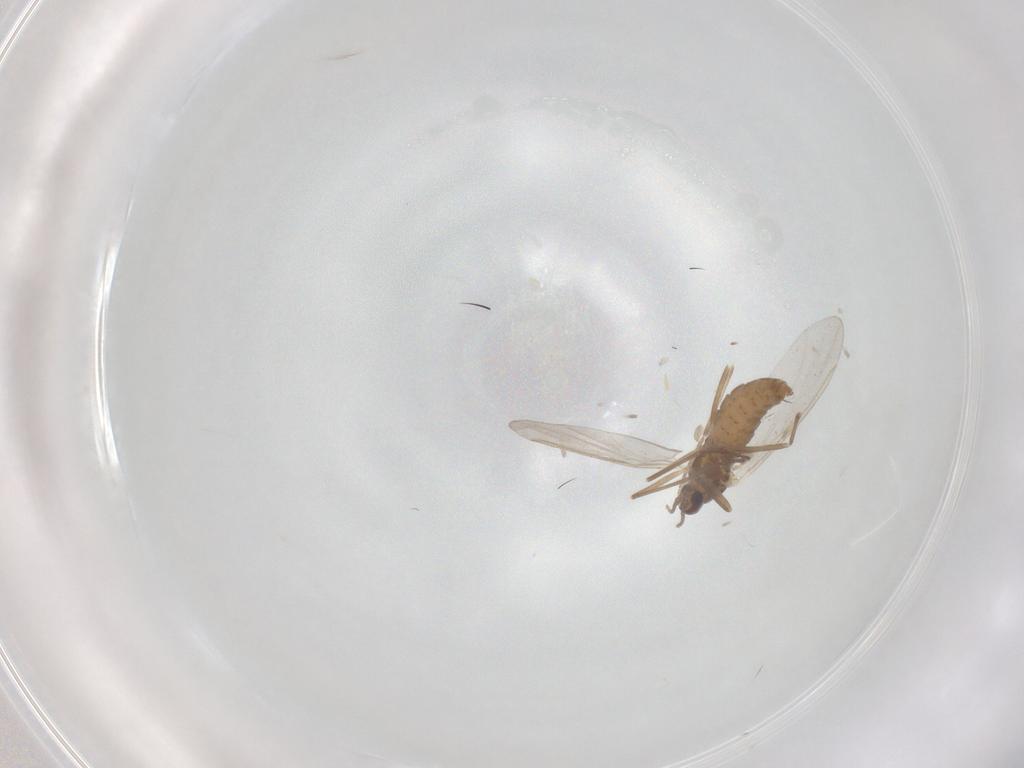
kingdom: Animalia
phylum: Arthropoda
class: Insecta
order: Diptera
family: Cecidomyiidae
